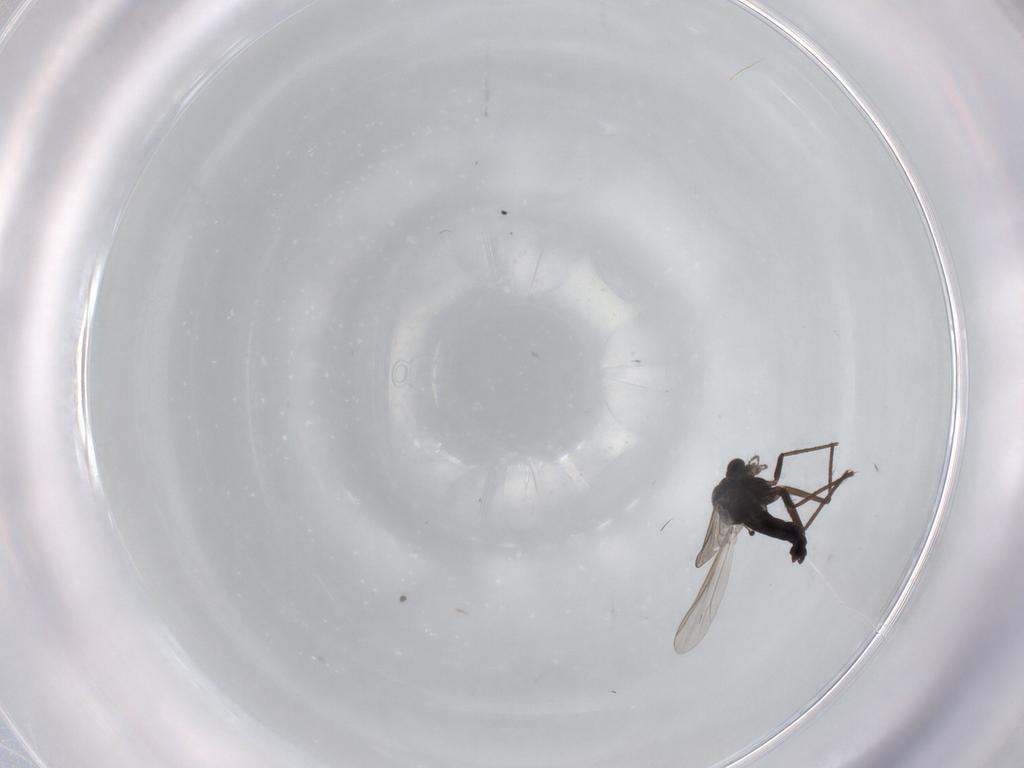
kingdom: Animalia
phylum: Arthropoda
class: Insecta
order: Diptera
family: Chironomidae
